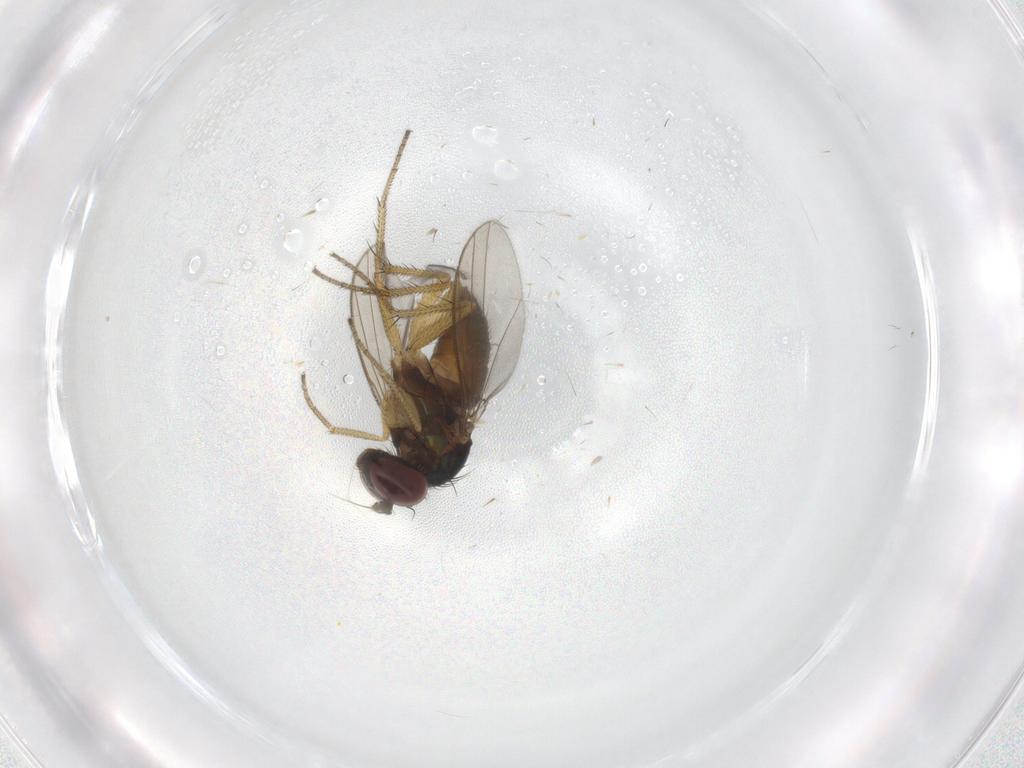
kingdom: Animalia
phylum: Arthropoda
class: Insecta
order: Diptera
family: Dolichopodidae
